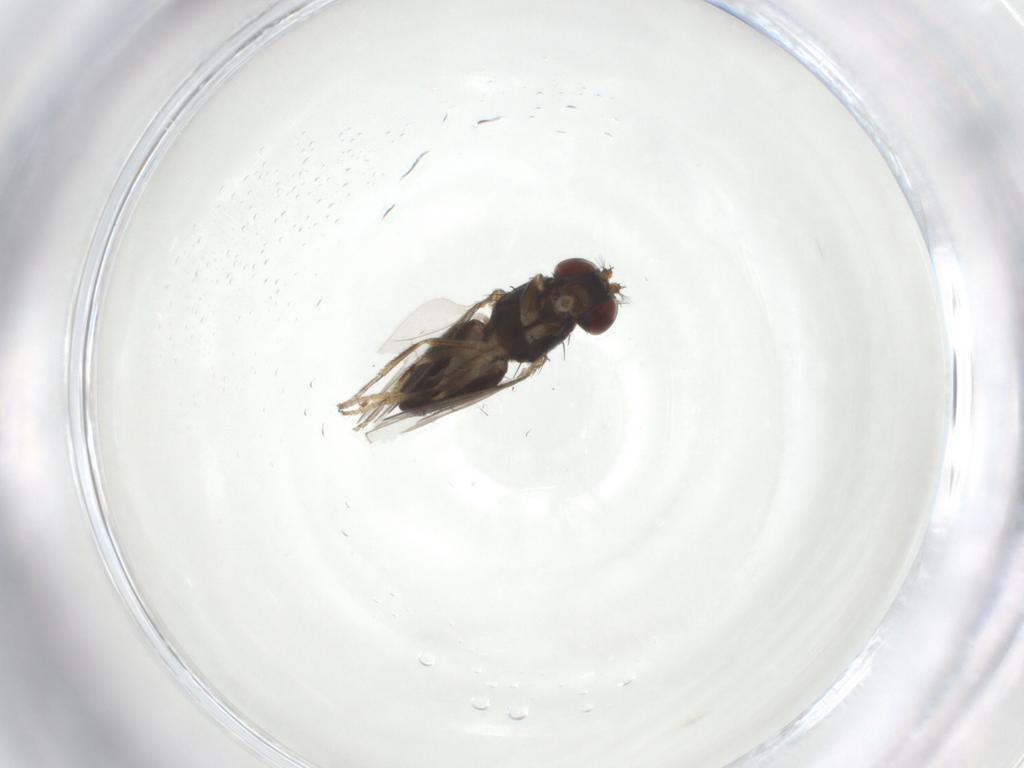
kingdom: Animalia
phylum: Arthropoda
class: Insecta
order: Diptera
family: Ephydridae
